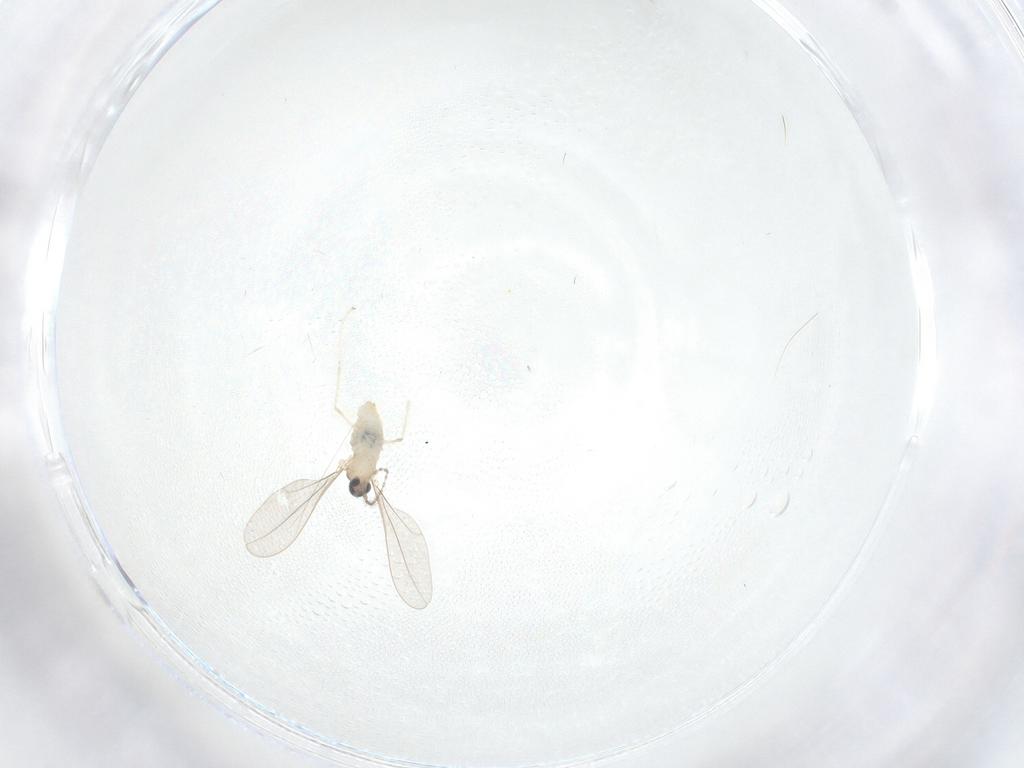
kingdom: Animalia
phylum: Arthropoda
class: Insecta
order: Diptera
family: Cecidomyiidae
